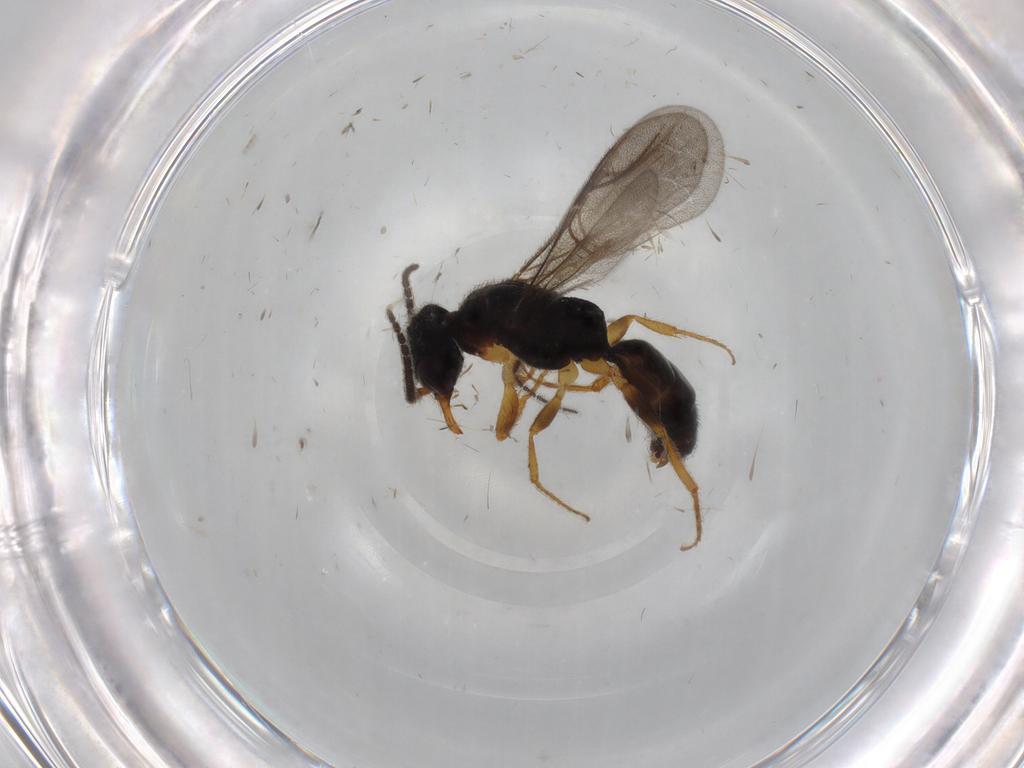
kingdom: Animalia
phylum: Arthropoda
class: Insecta
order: Hymenoptera
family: Bethylidae
